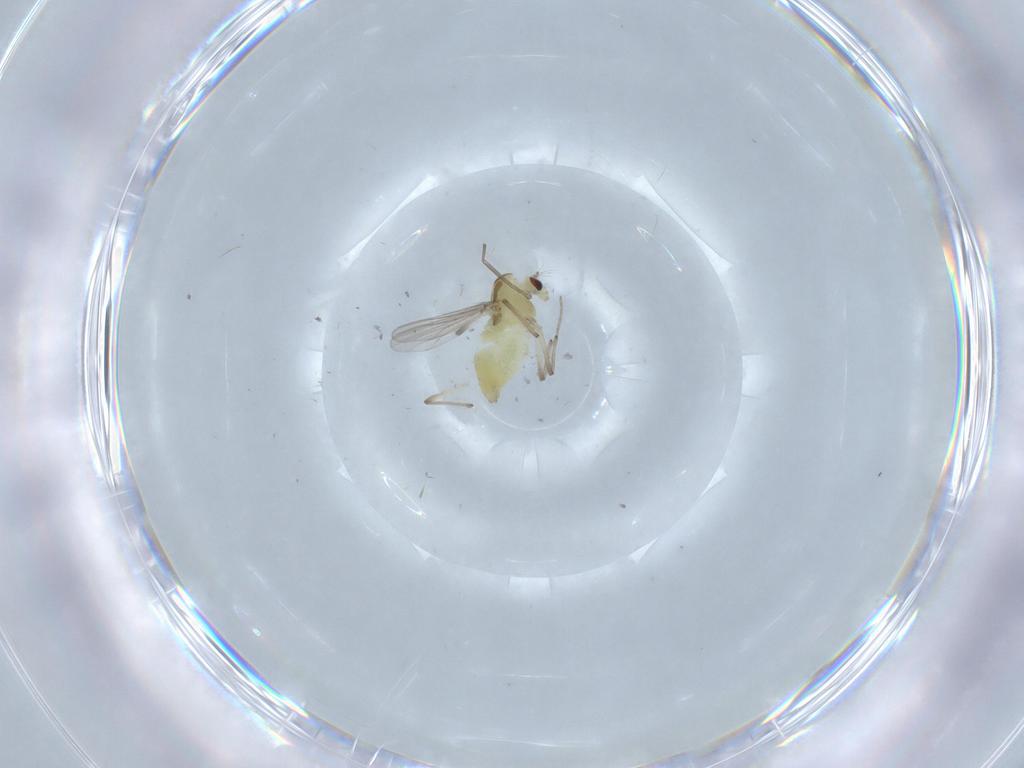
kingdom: Animalia
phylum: Arthropoda
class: Insecta
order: Diptera
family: Chironomidae
